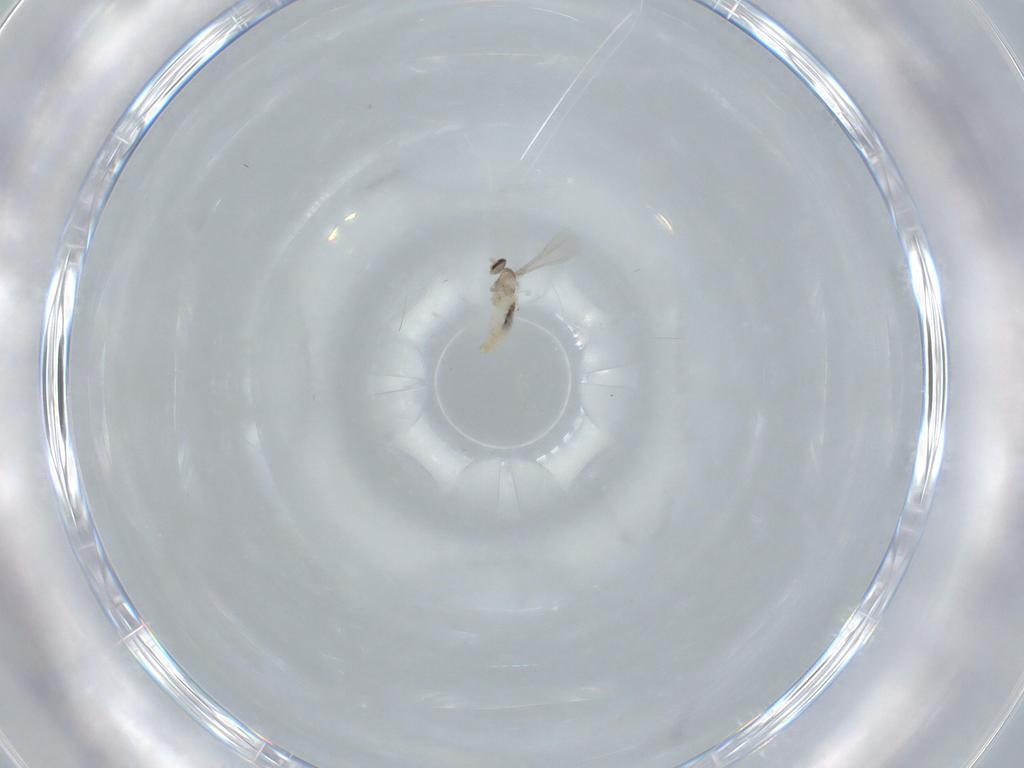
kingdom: Animalia
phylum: Arthropoda
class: Insecta
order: Diptera
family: Cecidomyiidae
